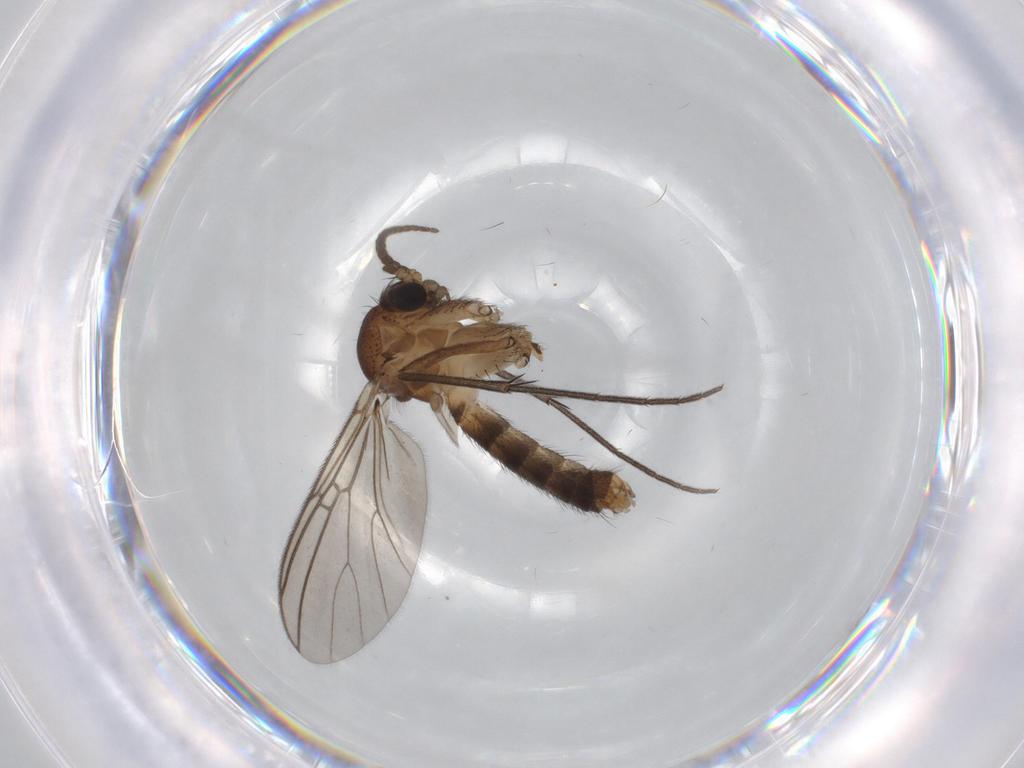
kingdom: Animalia
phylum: Arthropoda
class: Insecta
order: Diptera
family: Mycetophilidae
